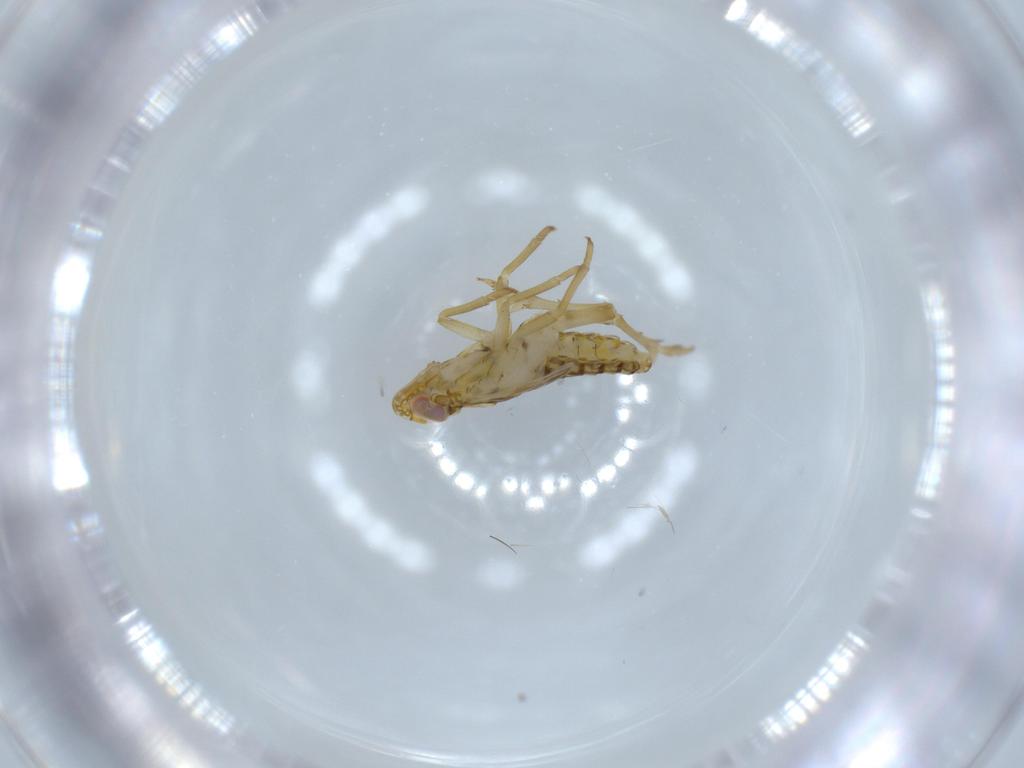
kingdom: Animalia
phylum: Arthropoda
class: Insecta
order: Hemiptera
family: Delphacidae
